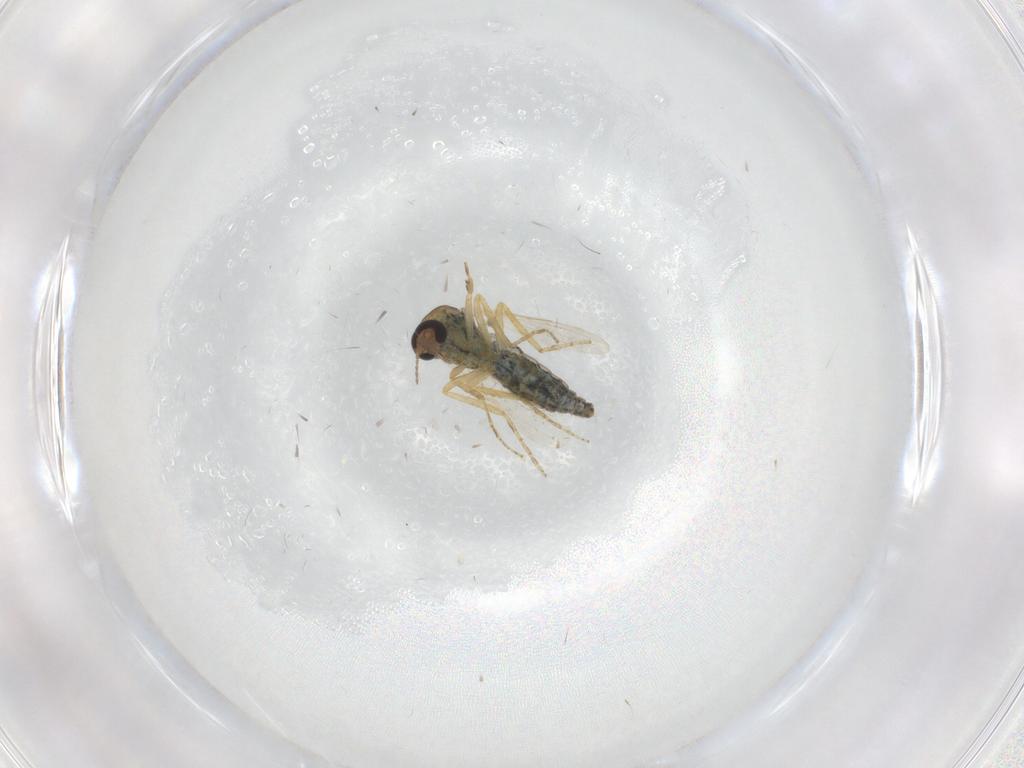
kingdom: Animalia
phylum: Arthropoda
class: Insecta
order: Diptera
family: Ceratopogonidae
